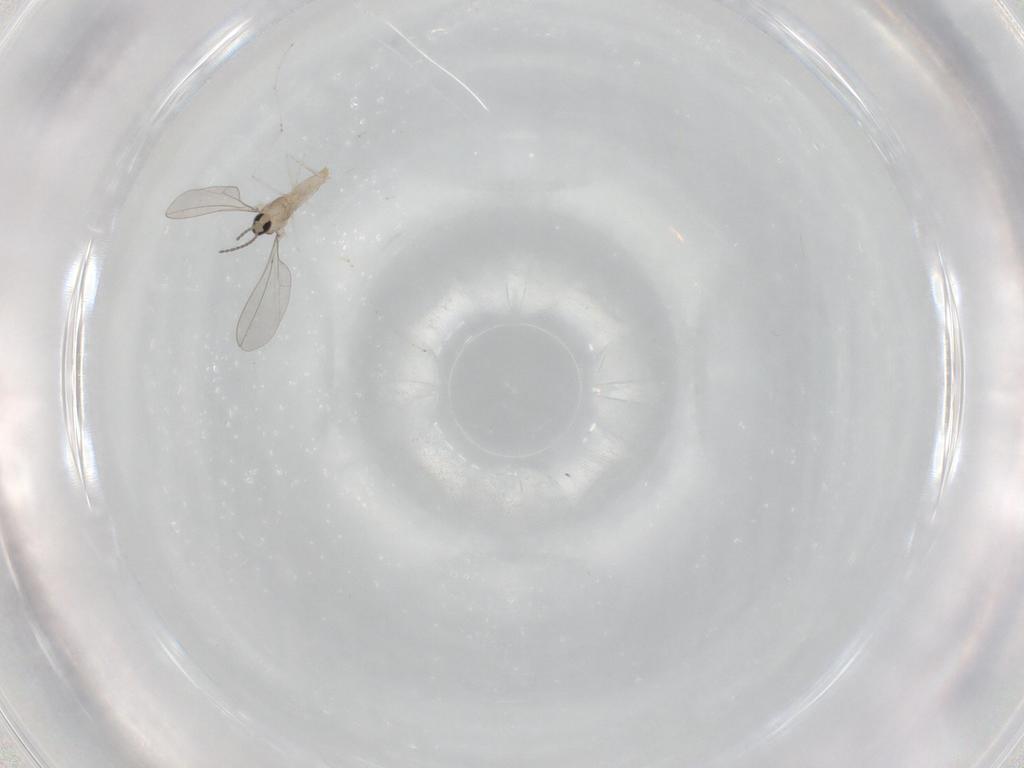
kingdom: Animalia
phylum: Arthropoda
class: Insecta
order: Diptera
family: Cecidomyiidae
